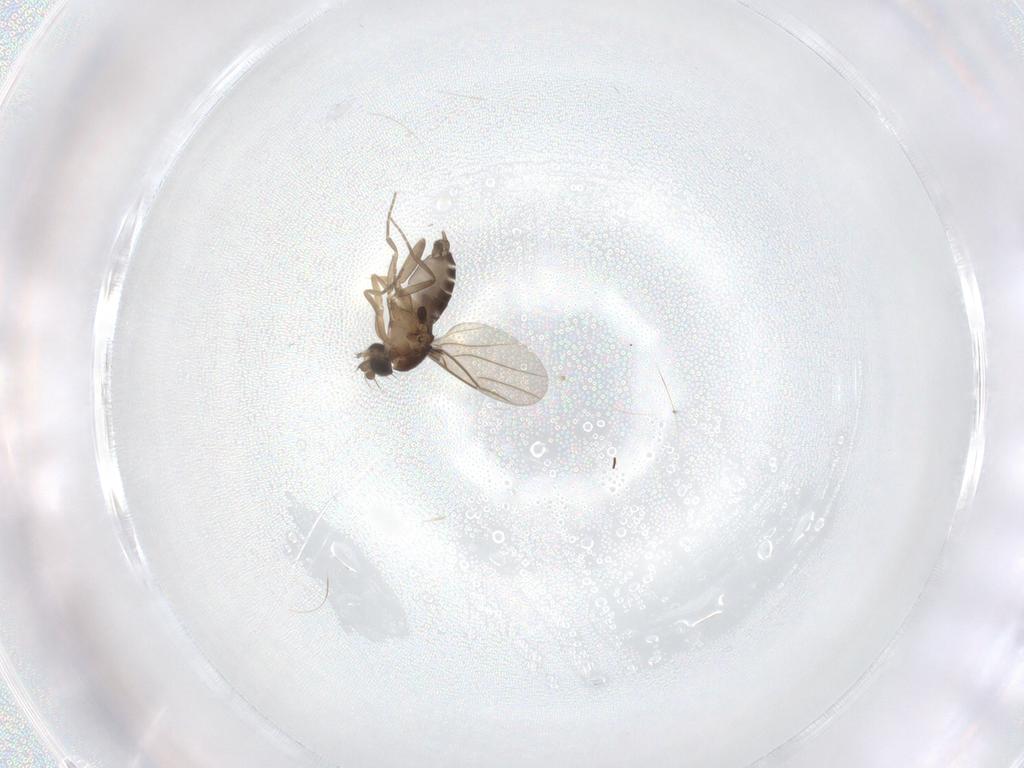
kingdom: Animalia
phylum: Arthropoda
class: Insecta
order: Diptera
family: Phoridae
